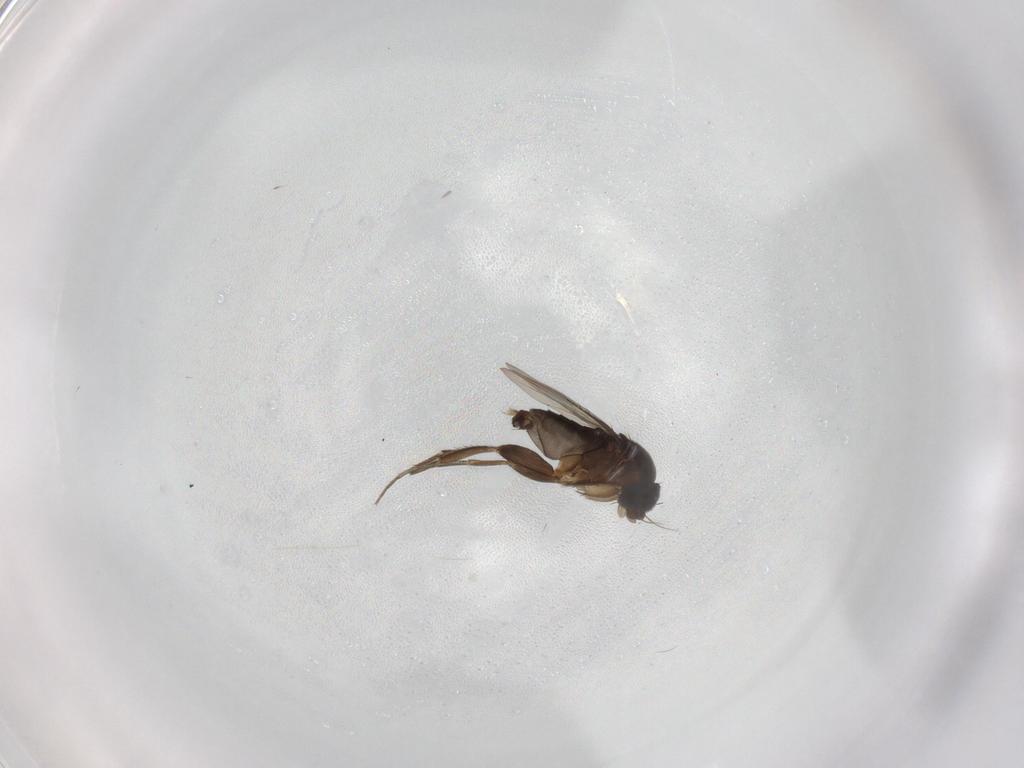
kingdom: Animalia
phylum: Arthropoda
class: Insecta
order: Diptera
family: Phoridae
